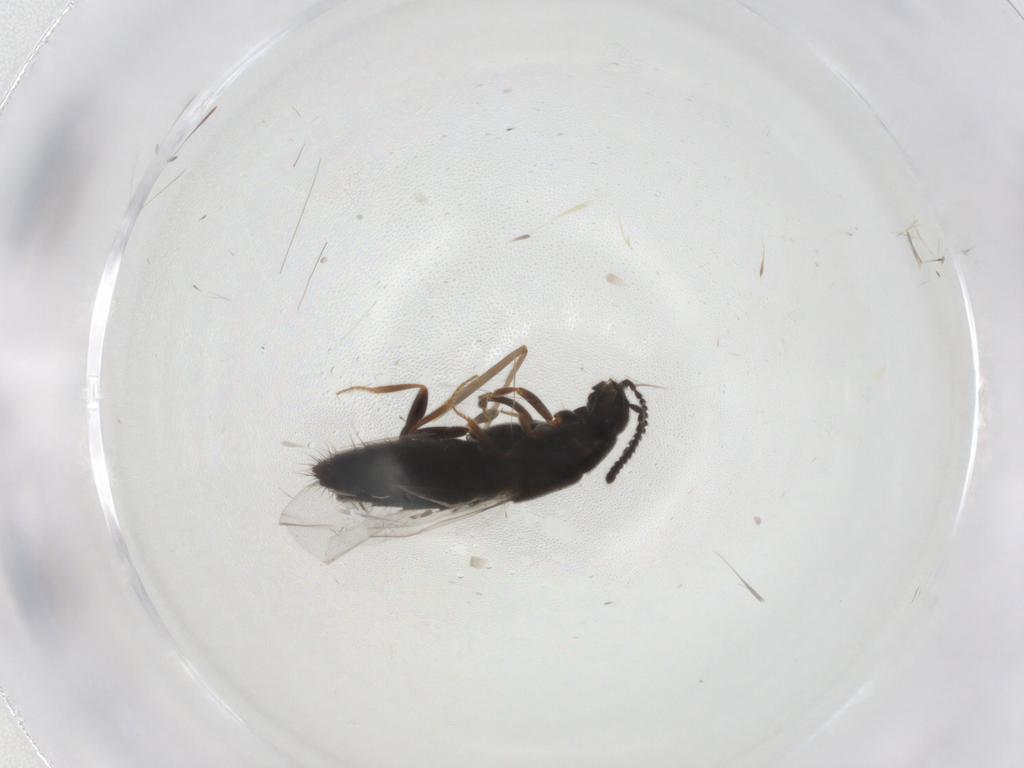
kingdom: Animalia
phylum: Arthropoda
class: Insecta
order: Coleoptera
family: Staphylinidae
